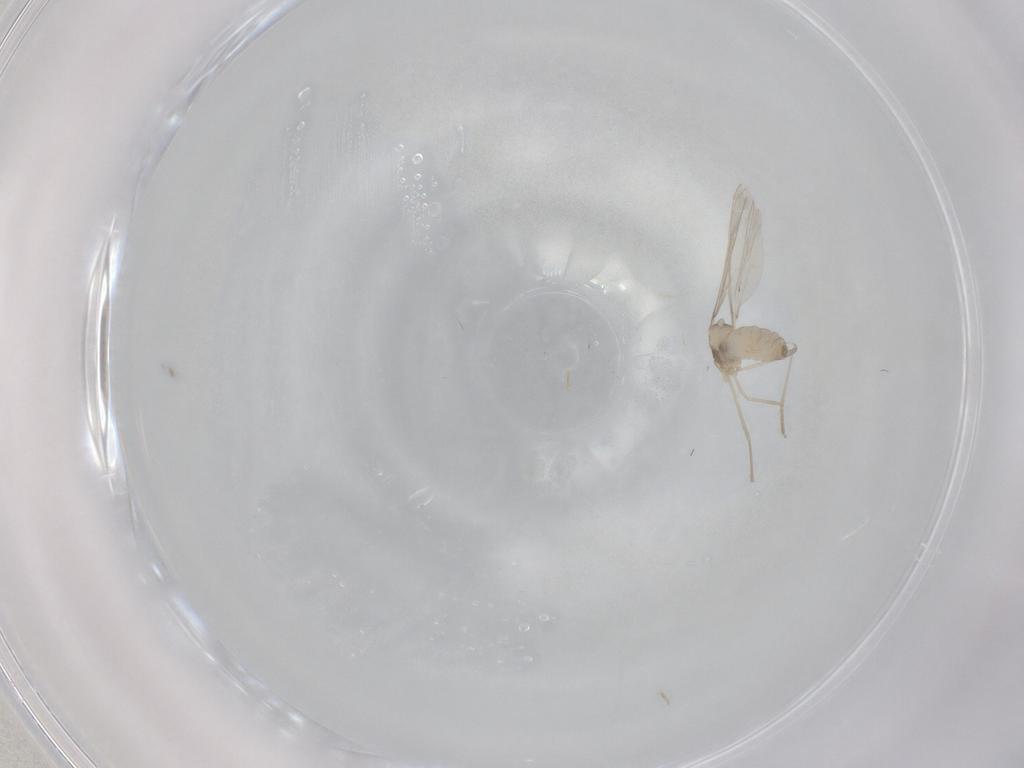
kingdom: Animalia
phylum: Arthropoda
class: Insecta
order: Diptera
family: Cecidomyiidae
